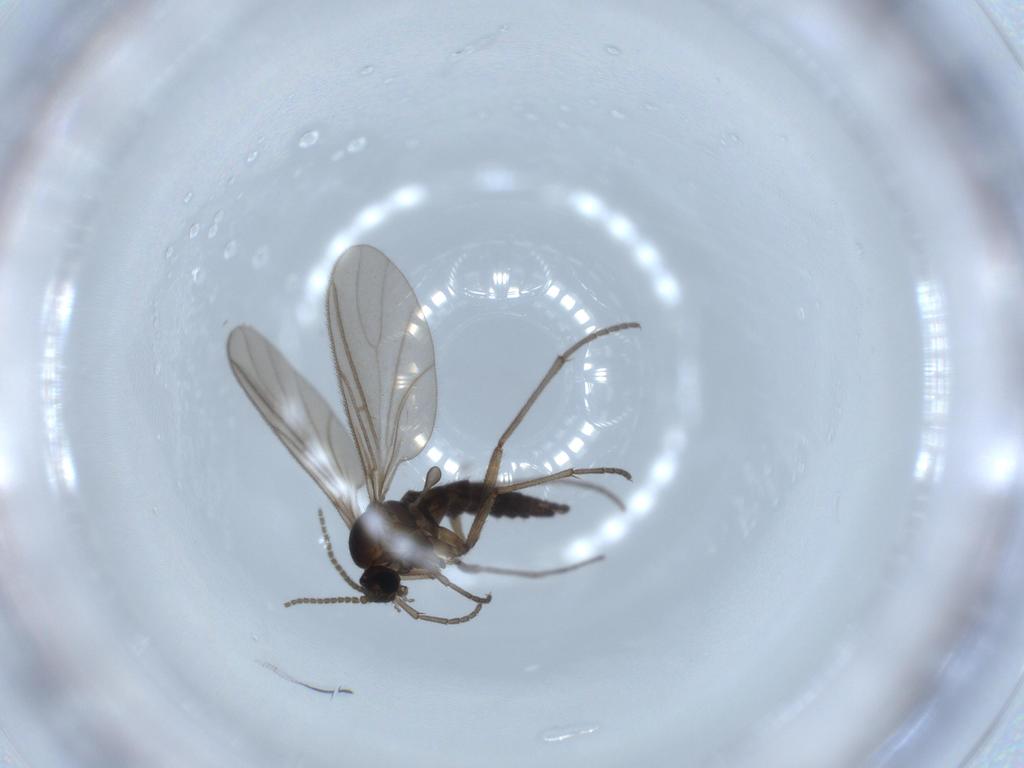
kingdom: Animalia
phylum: Arthropoda
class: Insecta
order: Diptera
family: Sciaridae
